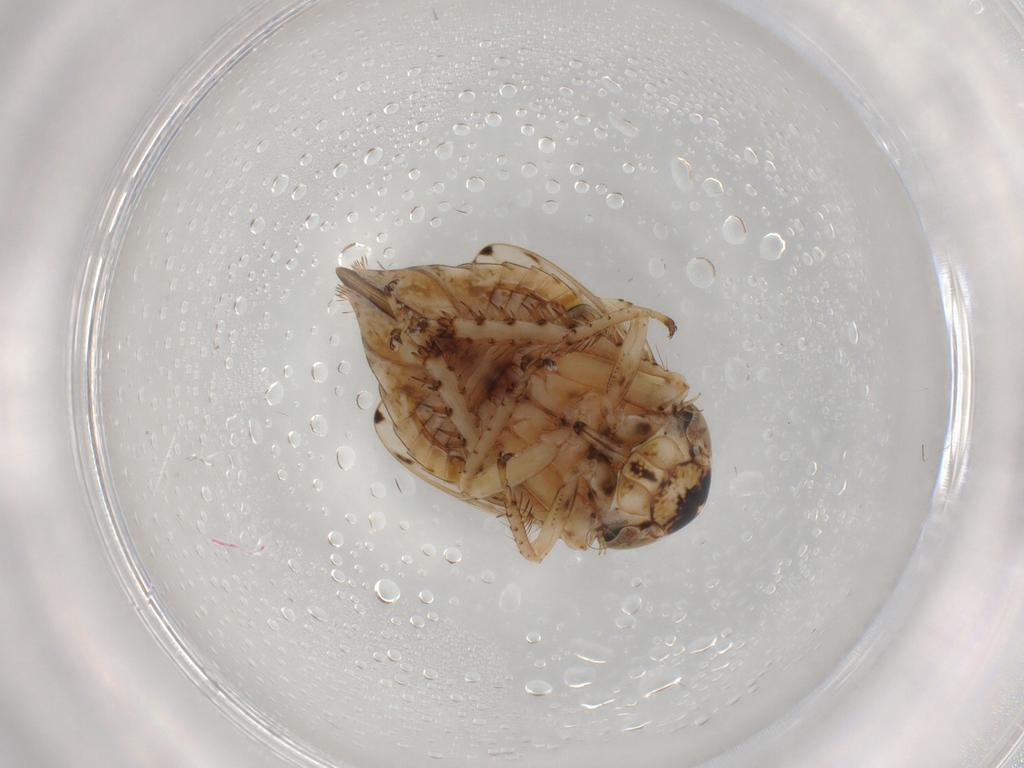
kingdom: Animalia
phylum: Arthropoda
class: Insecta
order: Hemiptera
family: Cicadellidae
